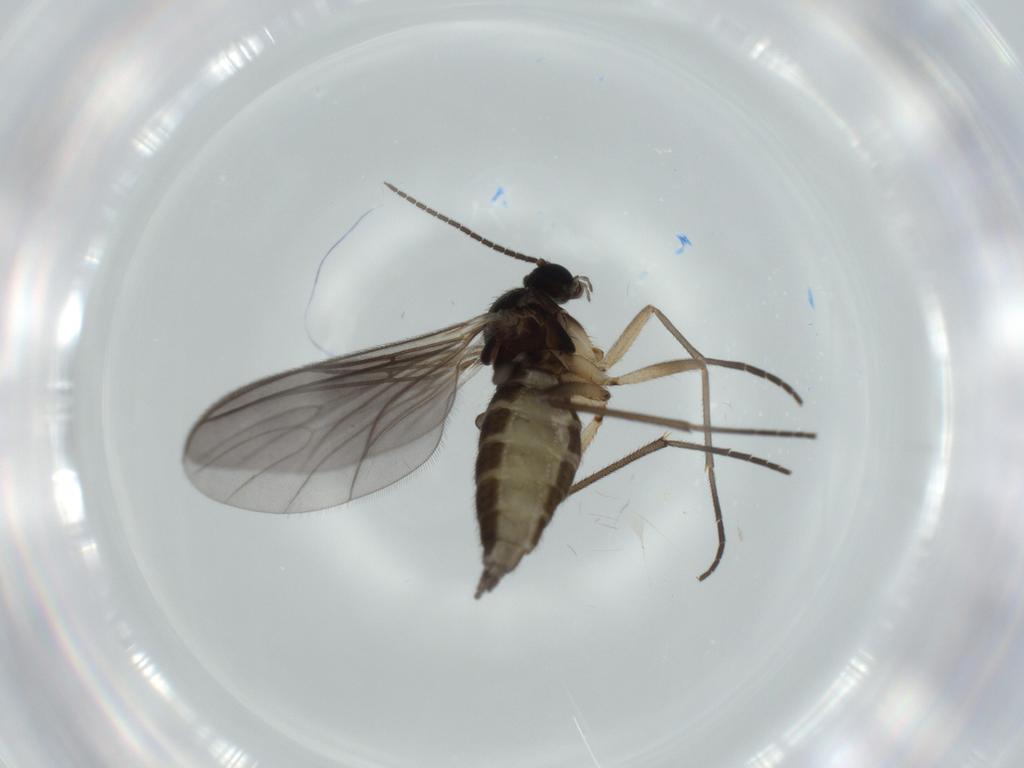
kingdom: Animalia
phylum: Arthropoda
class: Insecta
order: Diptera
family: Sciaridae
